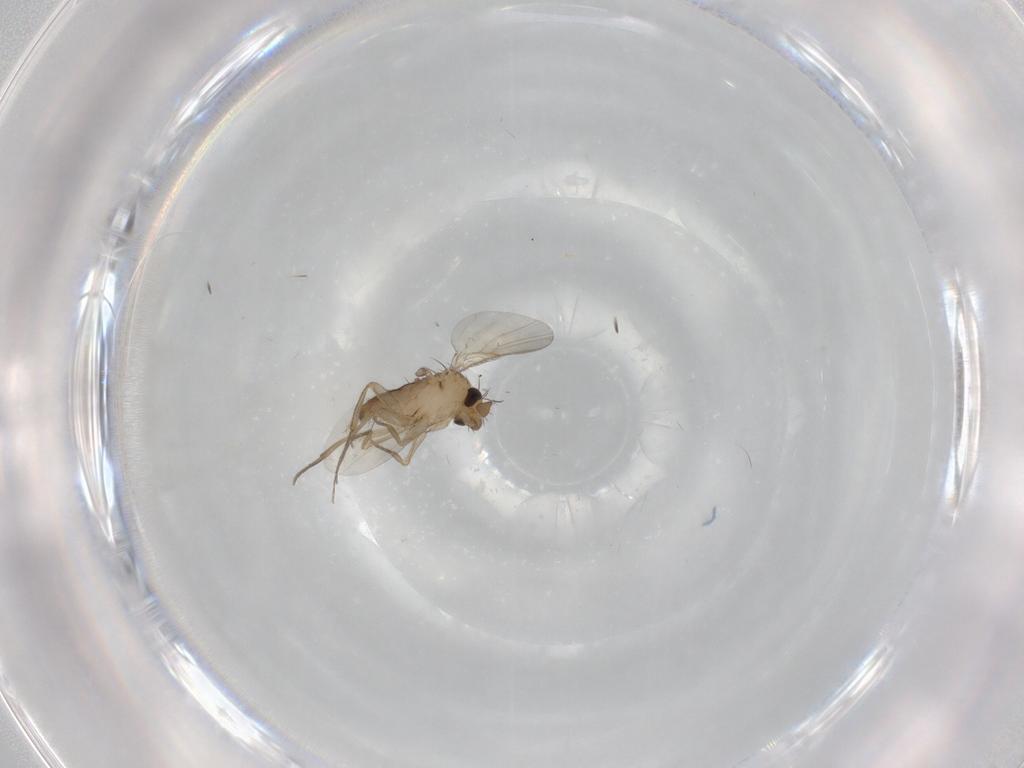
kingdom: Animalia
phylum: Arthropoda
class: Insecta
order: Diptera
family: Phoridae
